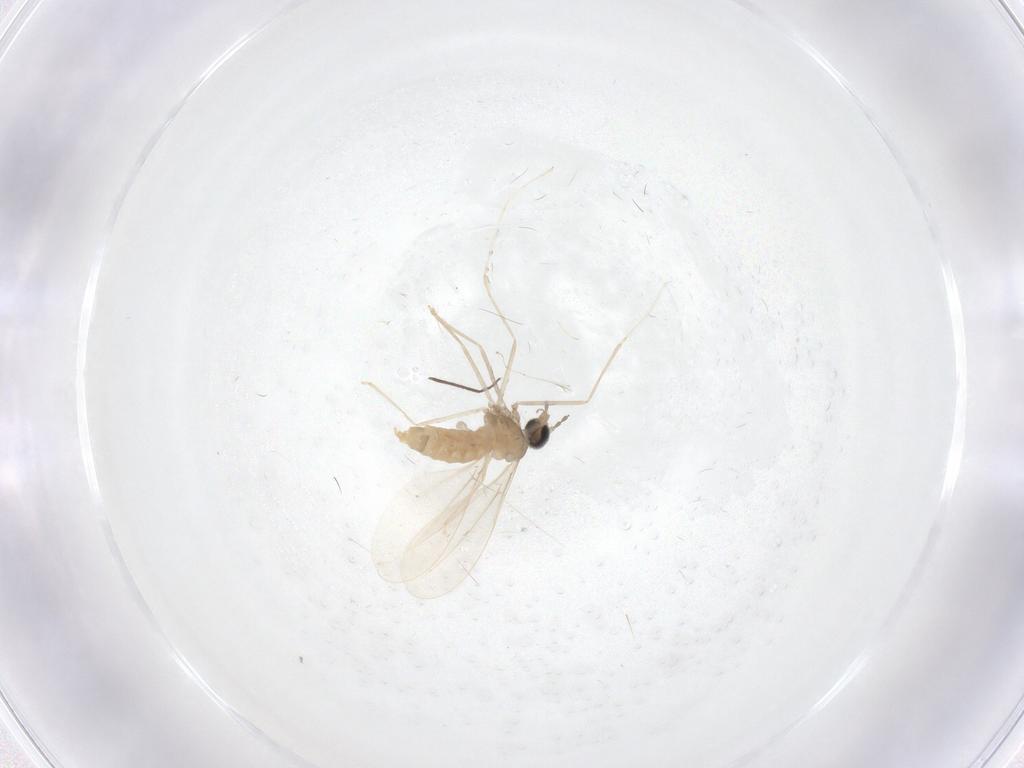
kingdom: Animalia
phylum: Arthropoda
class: Insecta
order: Diptera
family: Cecidomyiidae
